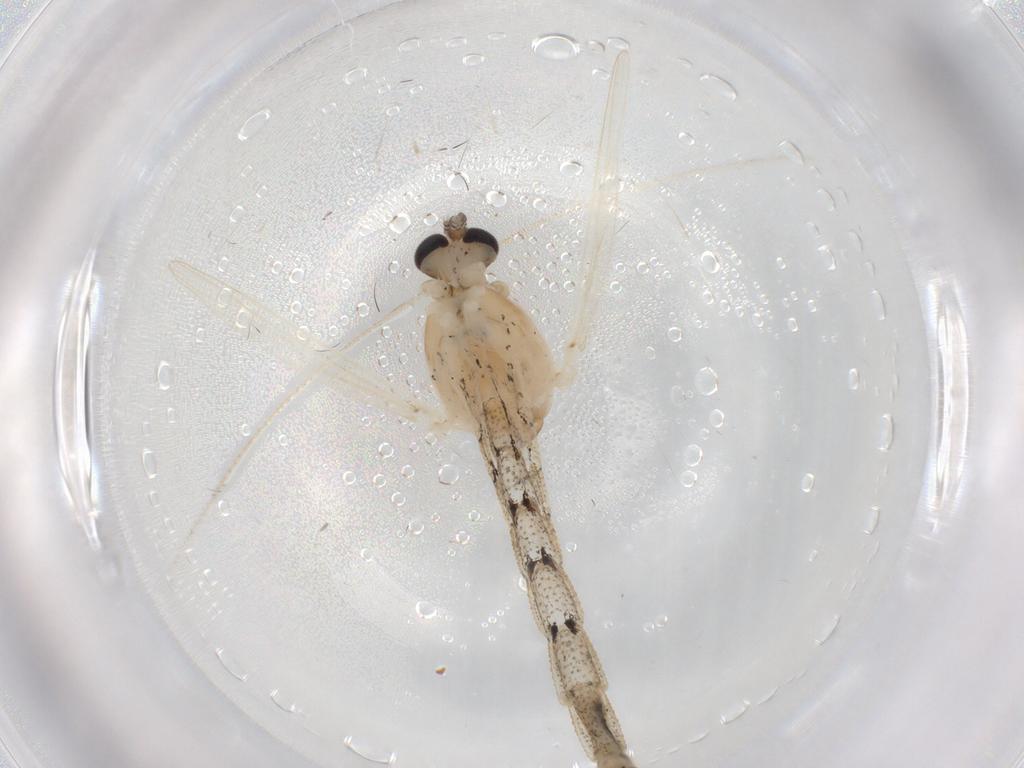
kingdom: Animalia
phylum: Arthropoda
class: Insecta
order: Diptera
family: Chironomidae
